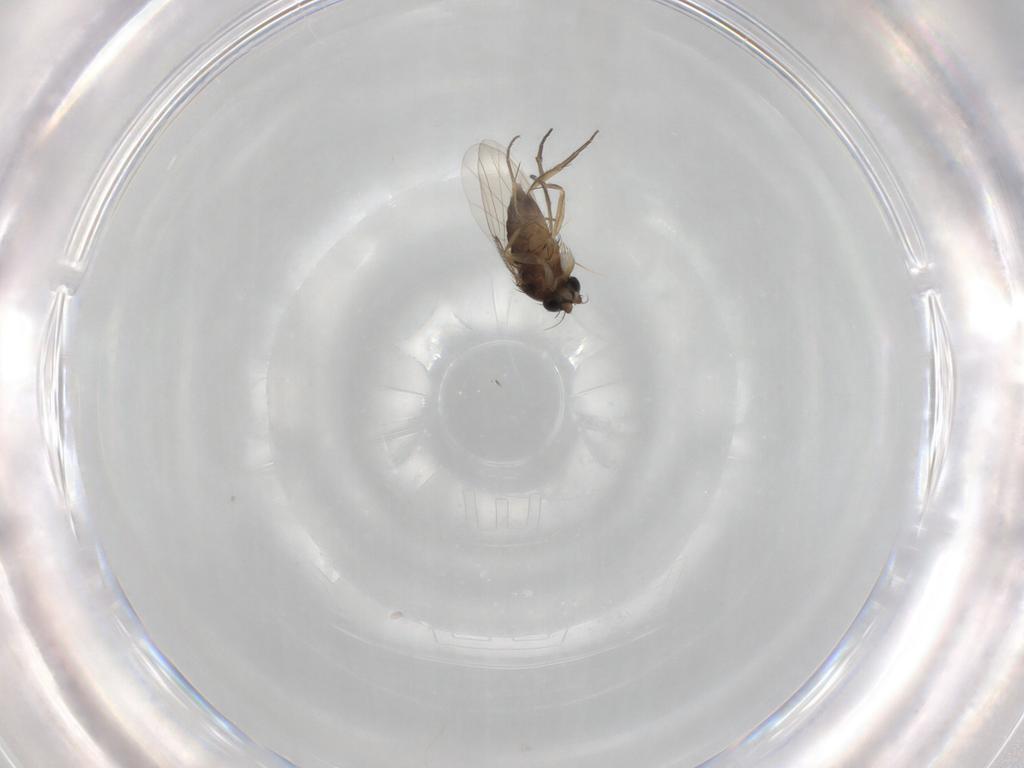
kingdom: Animalia
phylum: Arthropoda
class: Insecta
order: Diptera
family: Phoridae
